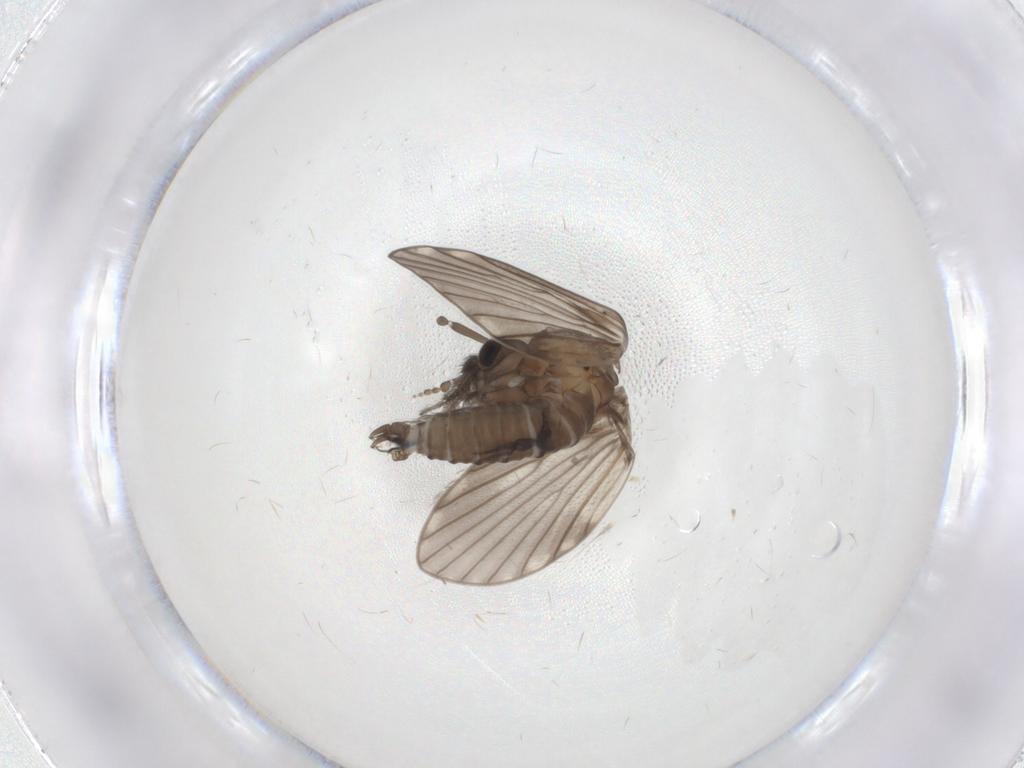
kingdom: Animalia
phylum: Arthropoda
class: Insecta
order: Diptera
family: Psychodidae
